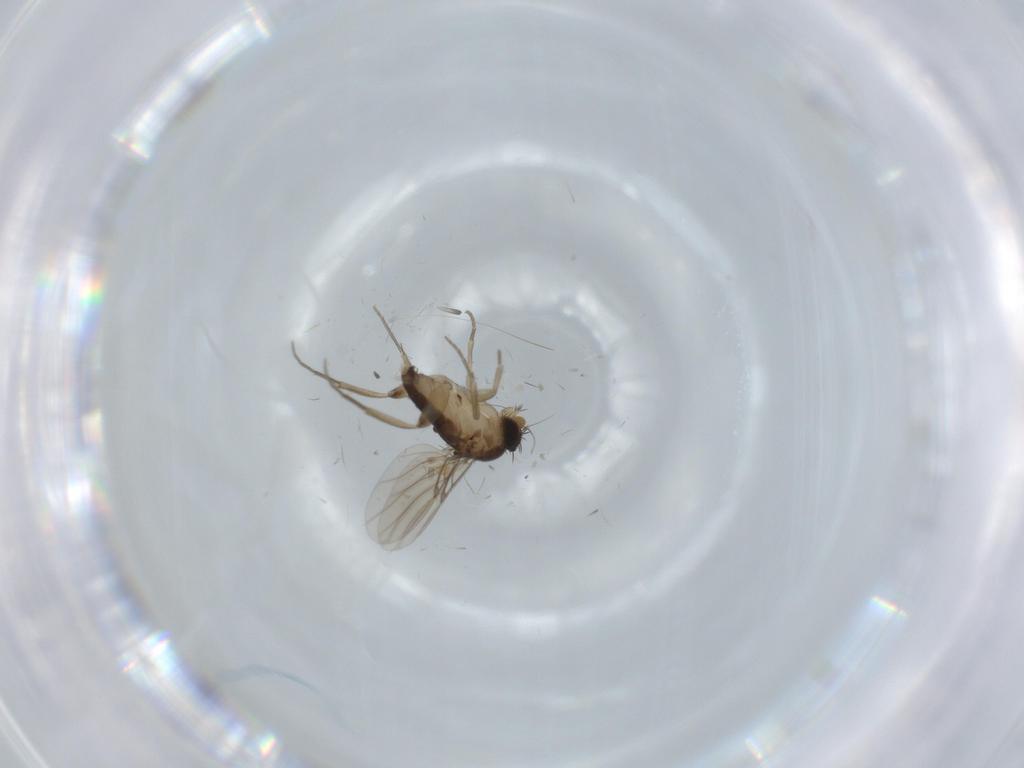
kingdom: Animalia
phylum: Arthropoda
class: Insecta
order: Diptera
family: Phoridae
